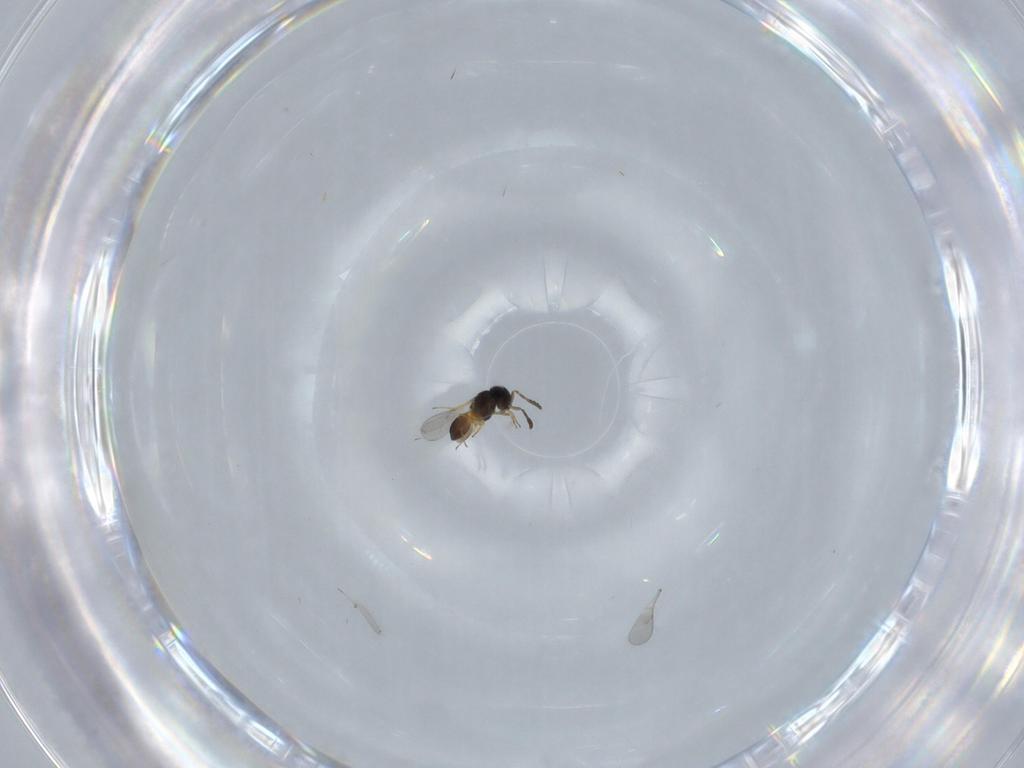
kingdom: Animalia
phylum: Arthropoda
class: Insecta
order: Hymenoptera
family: Scelionidae
